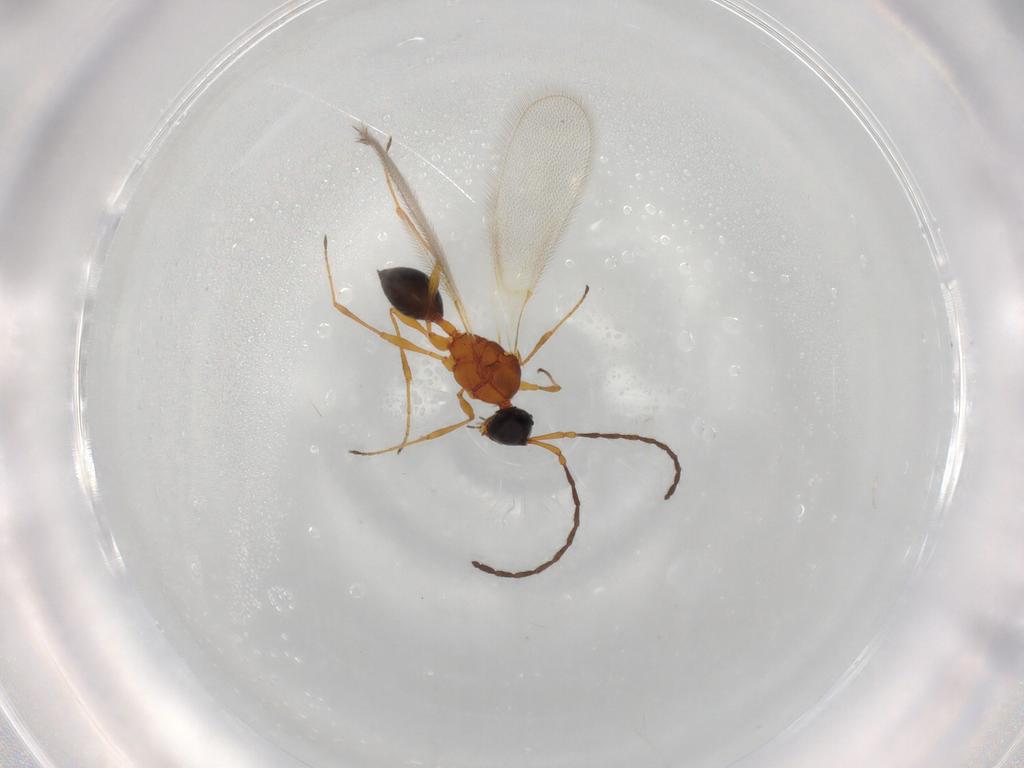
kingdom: Animalia
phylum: Arthropoda
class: Insecta
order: Hymenoptera
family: Diapriidae
